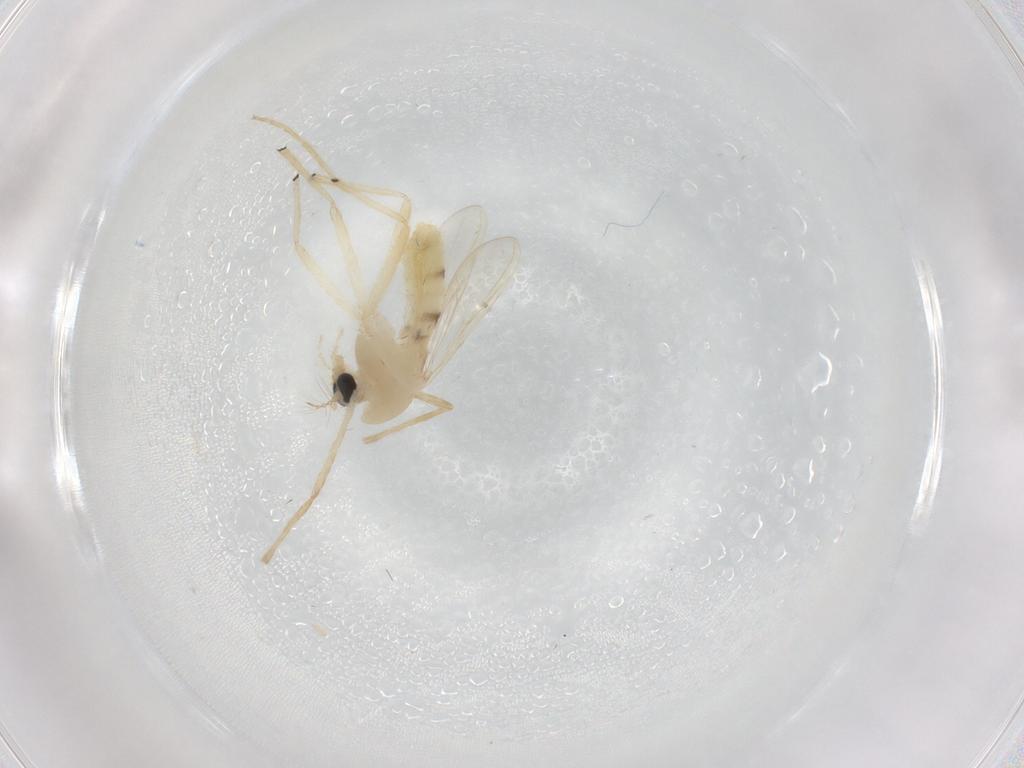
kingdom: Animalia
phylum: Arthropoda
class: Insecta
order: Diptera
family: Chironomidae
